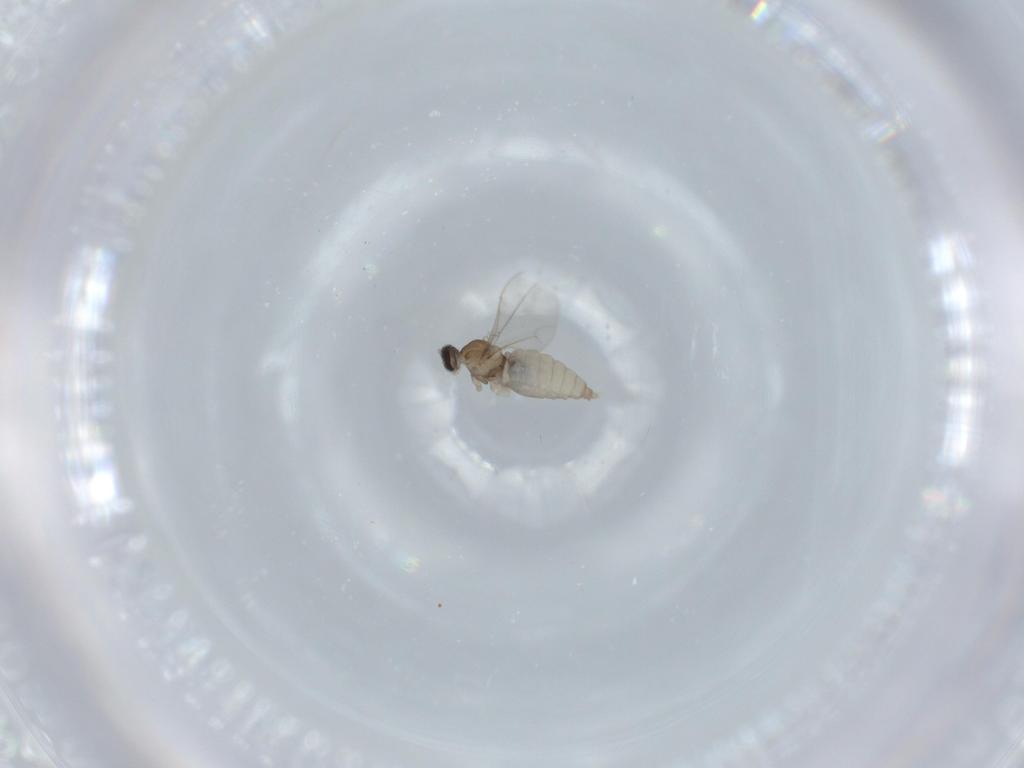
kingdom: Animalia
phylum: Arthropoda
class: Insecta
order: Diptera
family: Cecidomyiidae
